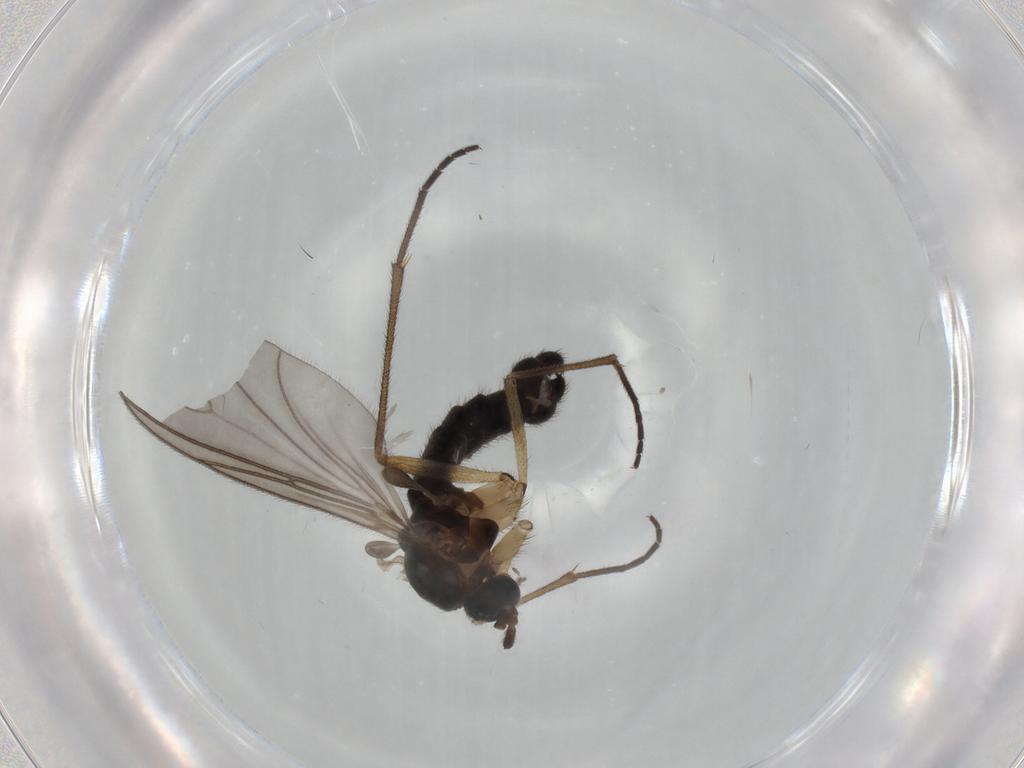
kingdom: Animalia
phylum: Arthropoda
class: Insecta
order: Diptera
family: Sciaridae
